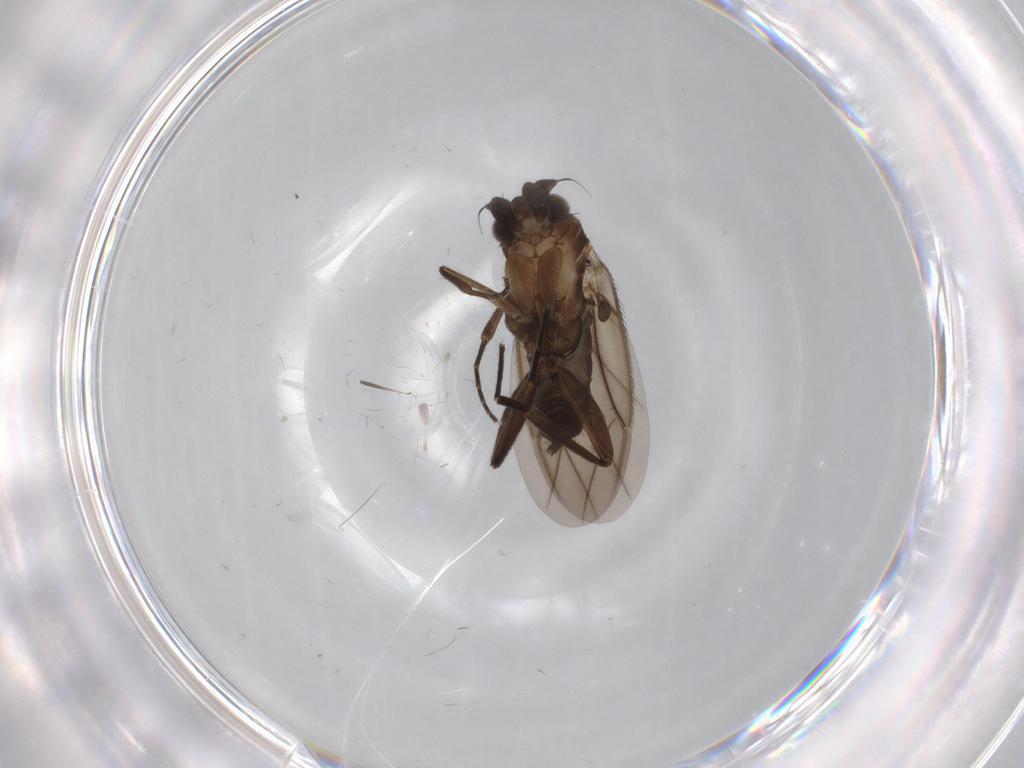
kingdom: Animalia
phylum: Arthropoda
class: Insecta
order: Diptera
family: Phoridae
